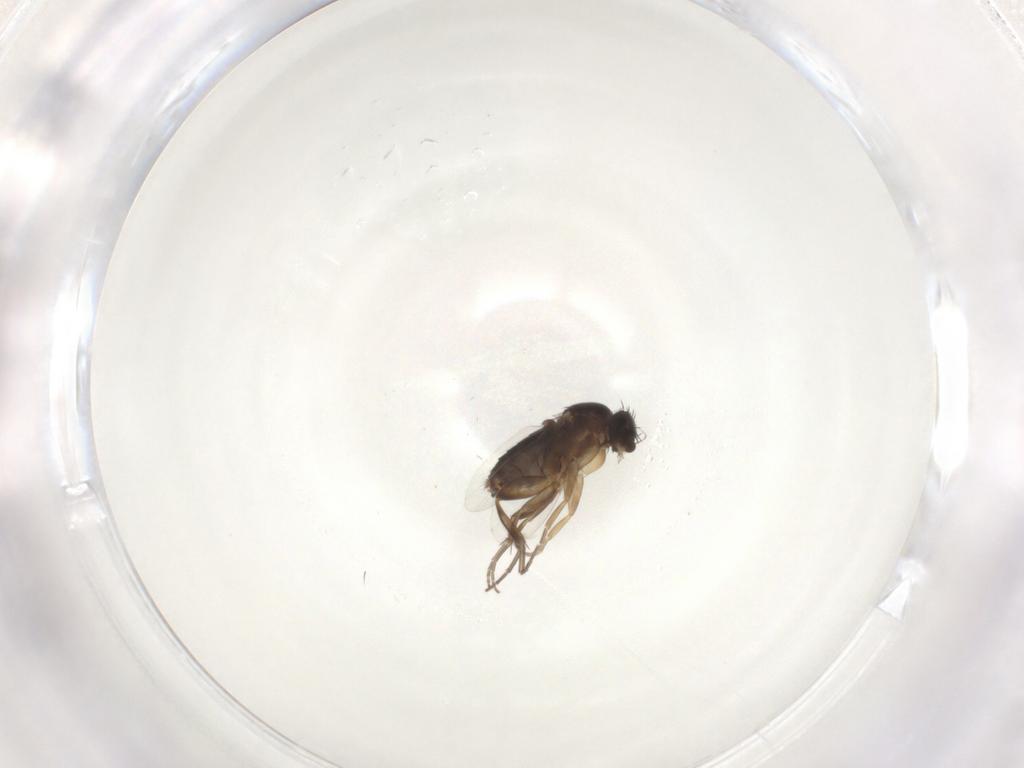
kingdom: Animalia
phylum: Arthropoda
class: Insecta
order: Diptera
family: Phoridae
